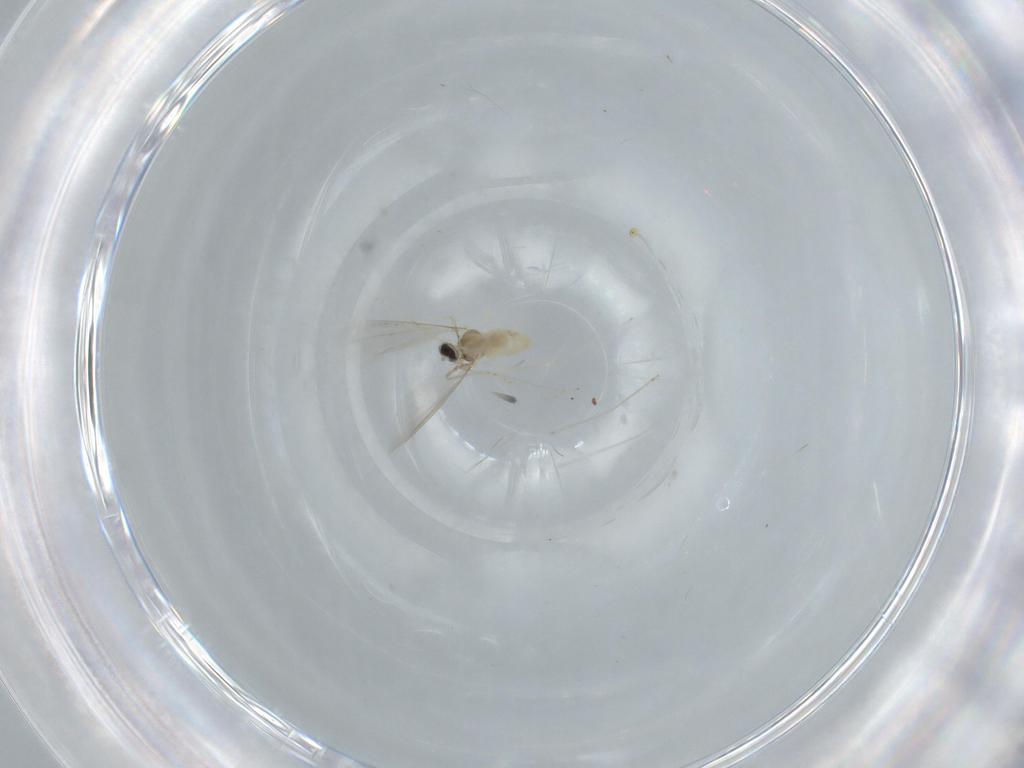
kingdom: Animalia
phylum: Arthropoda
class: Insecta
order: Diptera
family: Cecidomyiidae
